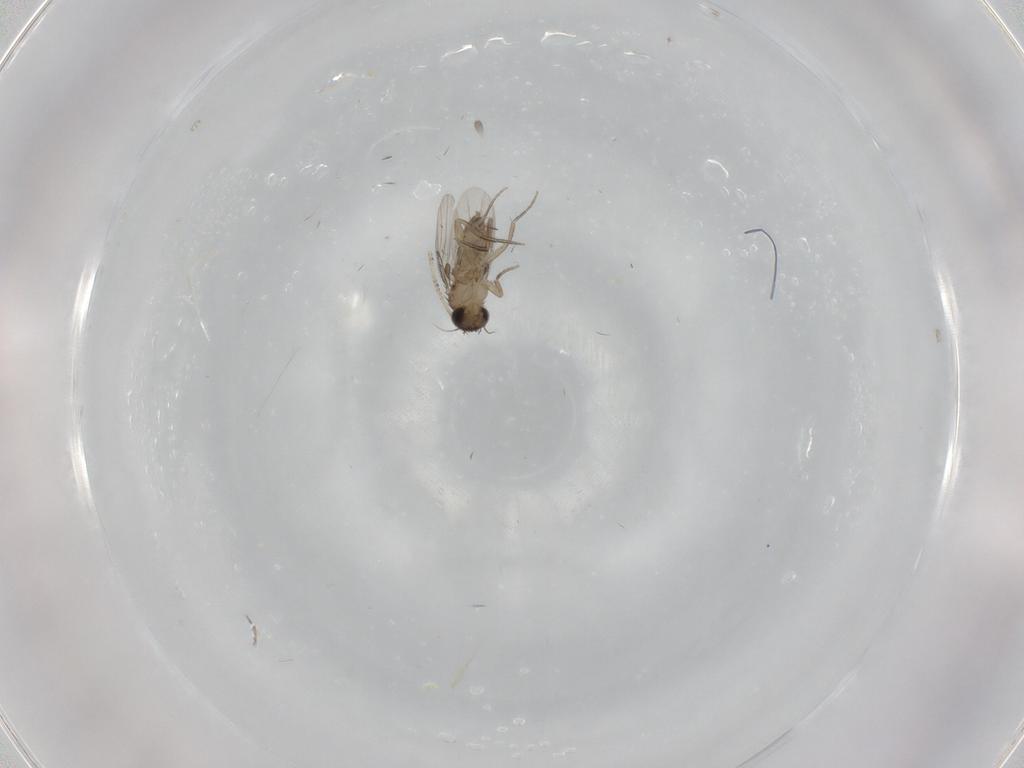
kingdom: Animalia
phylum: Arthropoda
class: Insecta
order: Diptera
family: Phoridae
